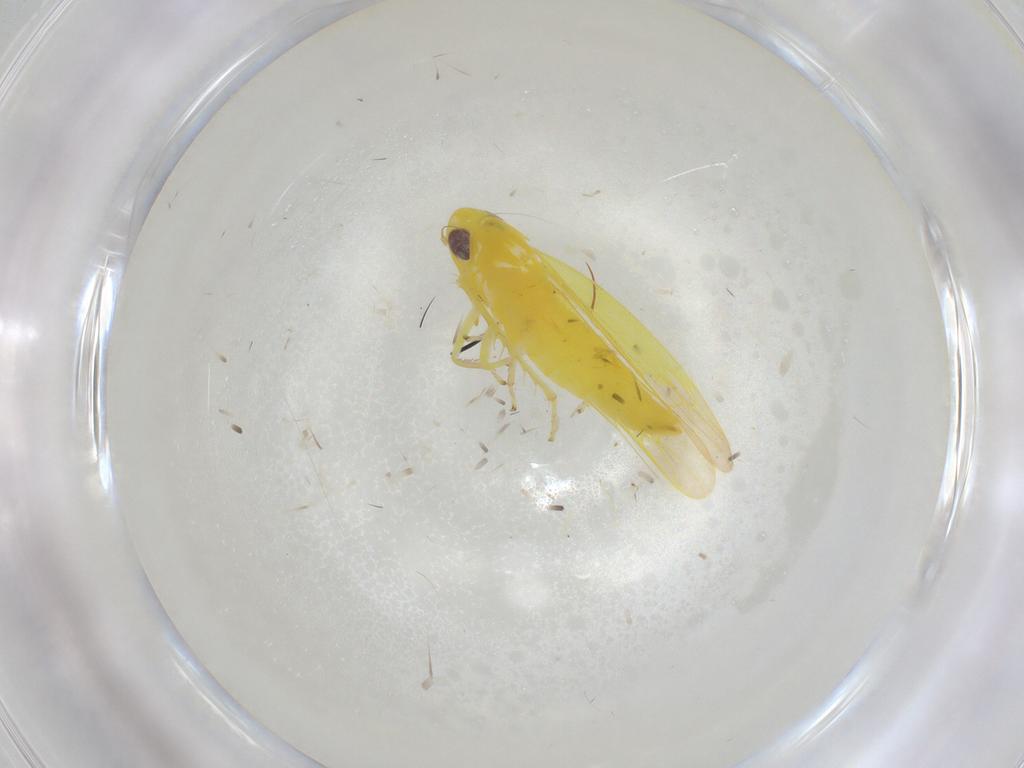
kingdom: Animalia
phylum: Arthropoda
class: Insecta
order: Hemiptera
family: Cicadellidae
